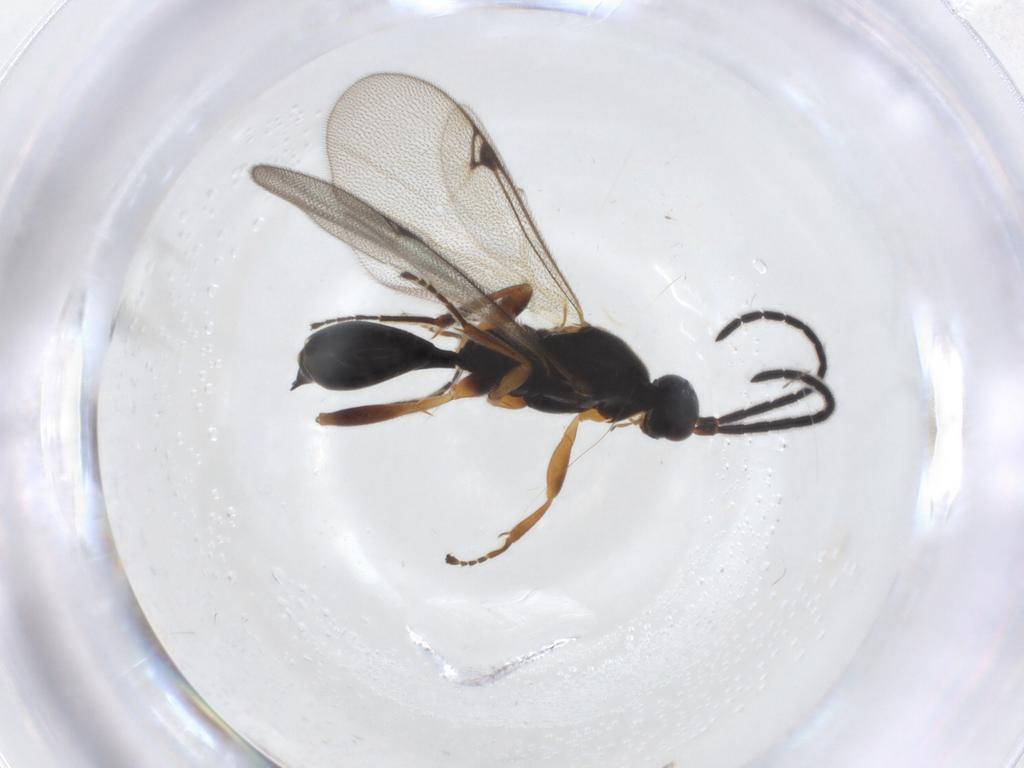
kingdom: Animalia
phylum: Arthropoda
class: Insecta
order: Hymenoptera
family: Proctotrupidae
